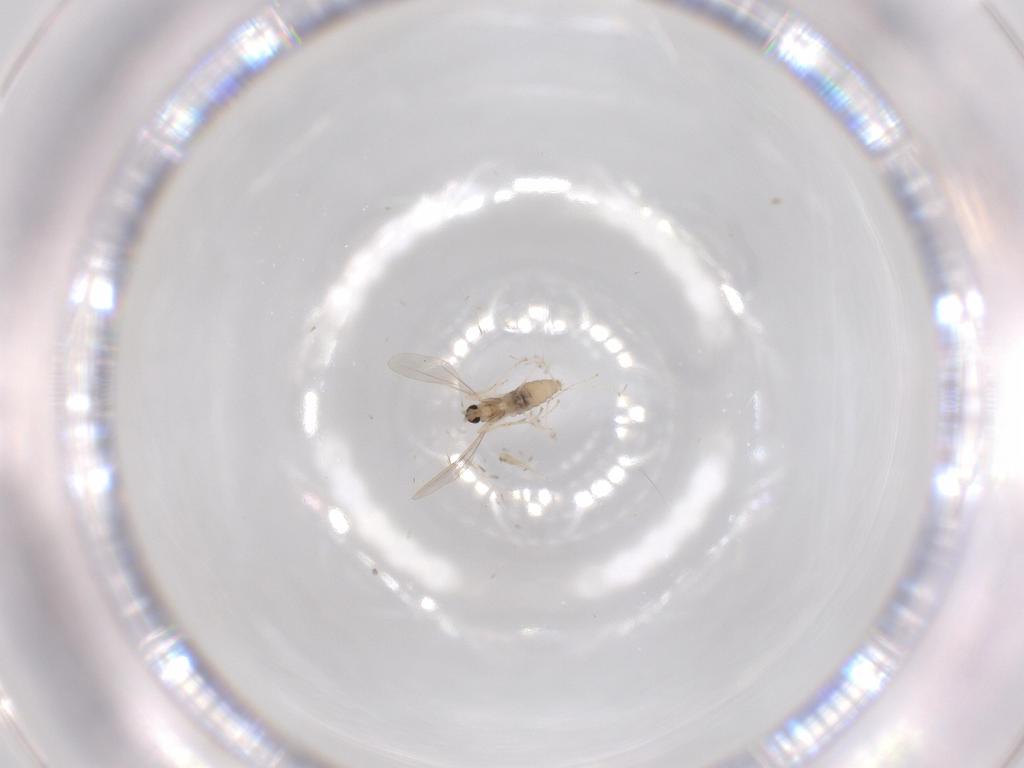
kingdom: Animalia
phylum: Arthropoda
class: Insecta
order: Diptera
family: Cecidomyiidae
